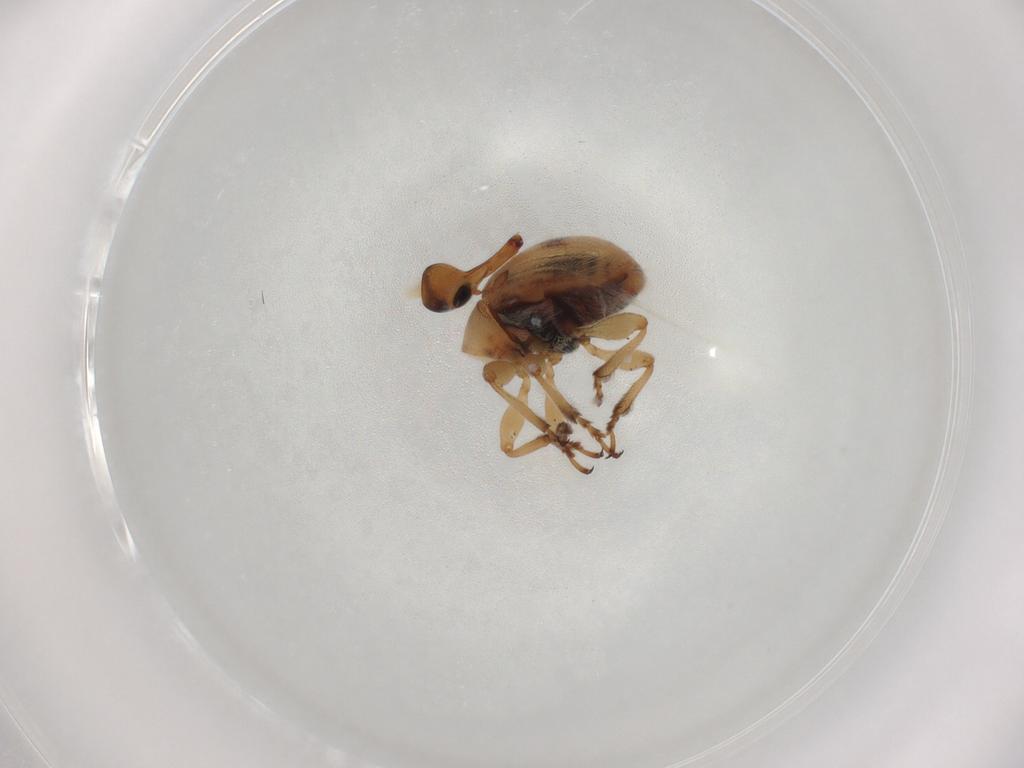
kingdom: Animalia
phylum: Arthropoda
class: Insecta
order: Coleoptera
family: Brentidae
